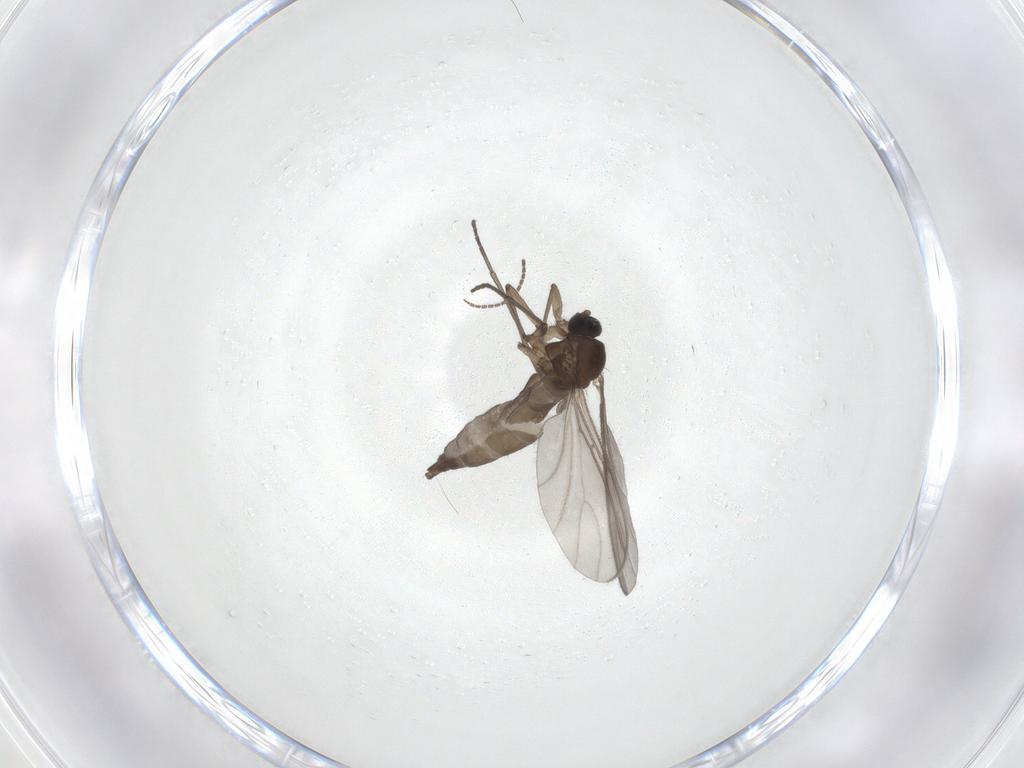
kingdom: Animalia
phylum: Arthropoda
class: Insecta
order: Diptera
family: Sciaridae
